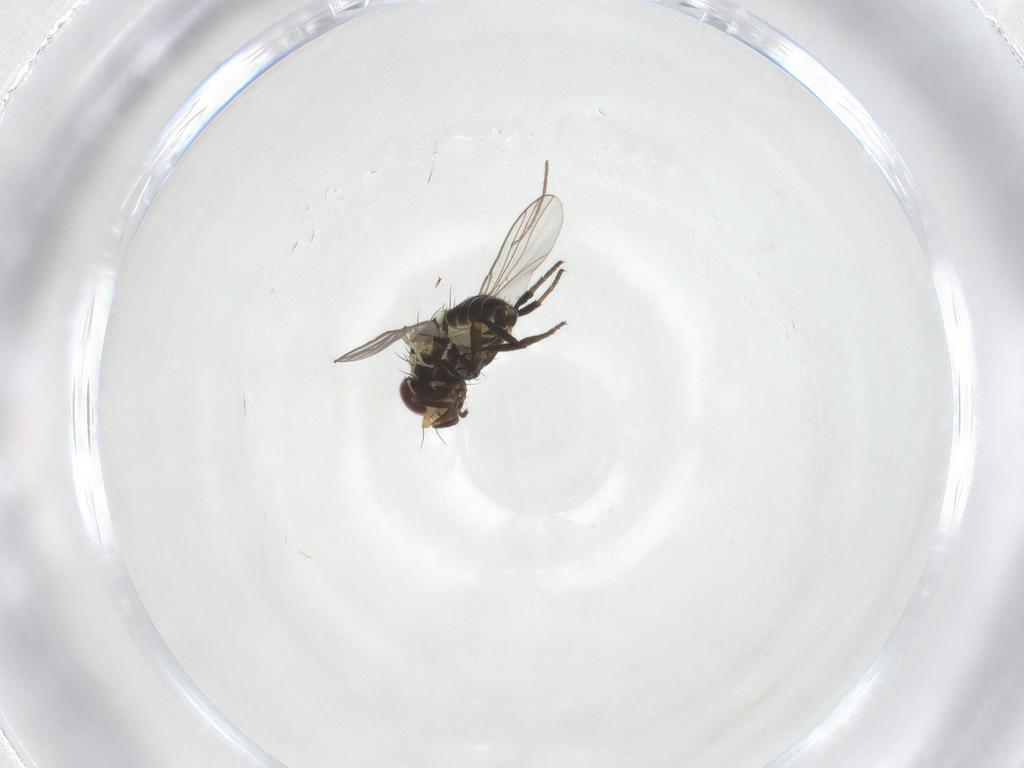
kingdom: Animalia
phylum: Arthropoda
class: Insecta
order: Diptera
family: Agromyzidae
